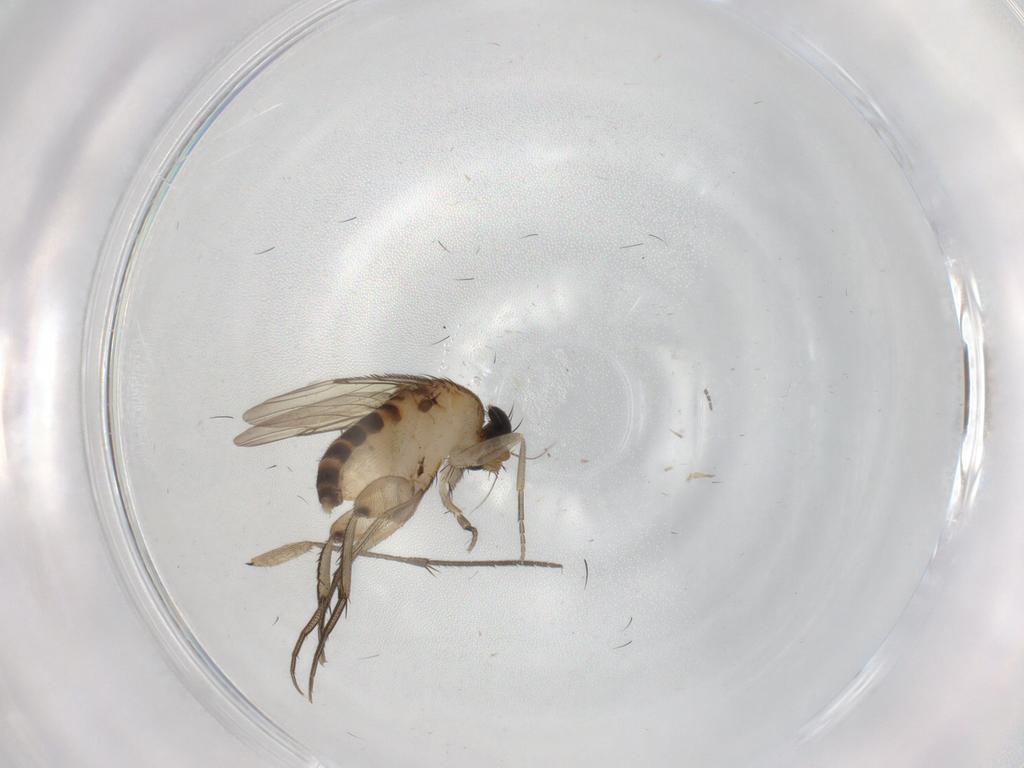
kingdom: Animalia
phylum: Arthropoda
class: Insecta
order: Diptera
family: Phoridae
